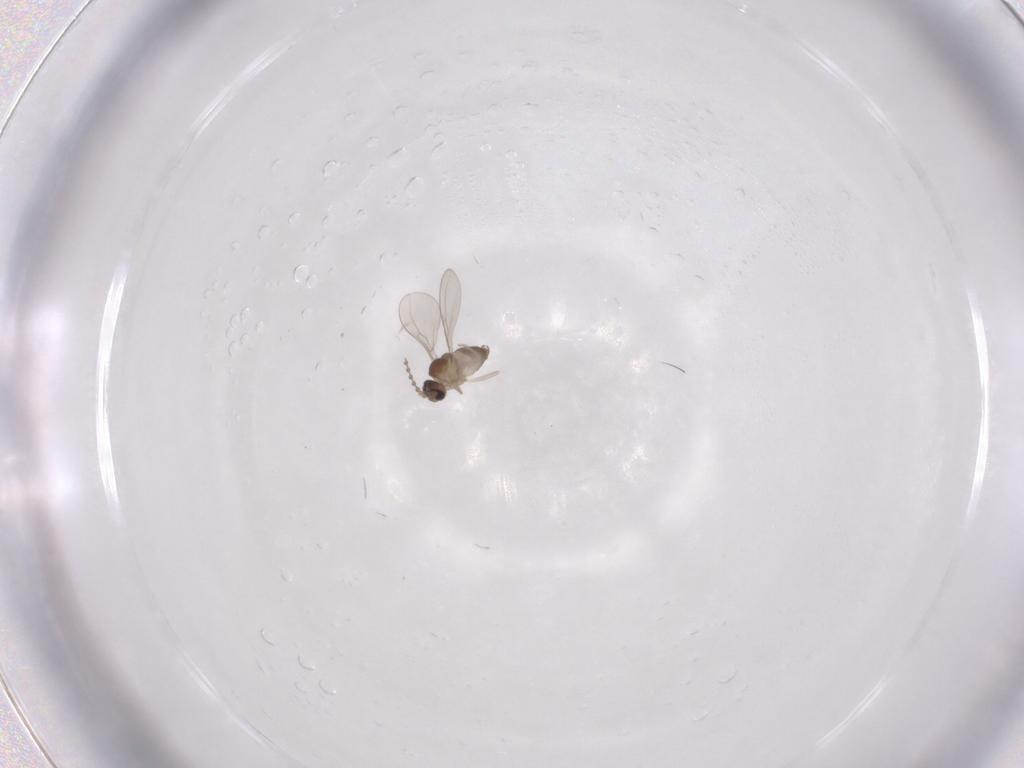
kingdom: Animalia
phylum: Arthropoda
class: Insecta
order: Diptera
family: Cecidomyiidae
